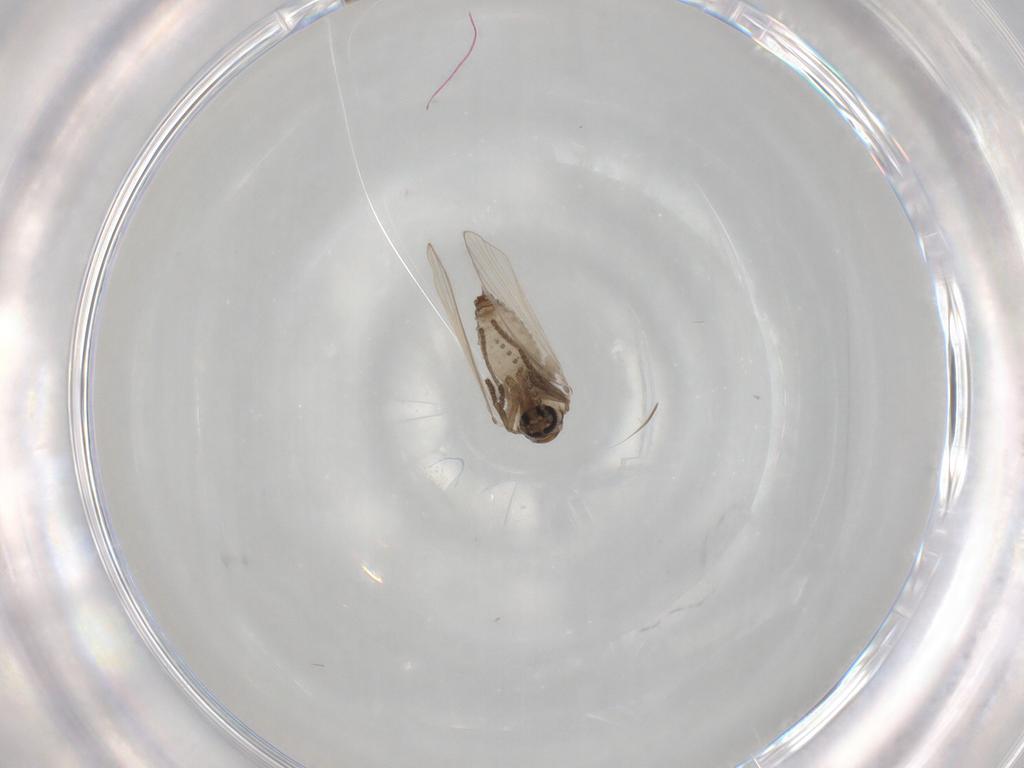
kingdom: Animalia
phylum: Arthropoda
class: Insecta
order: Diptera
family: Psychodidae
